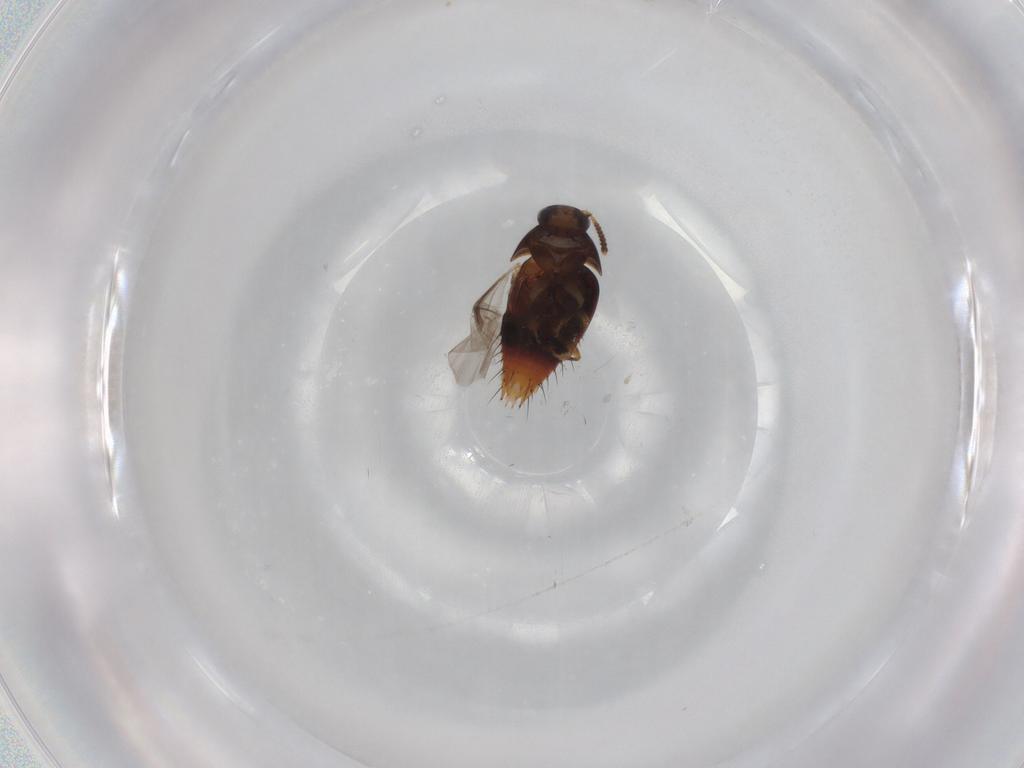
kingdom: Animalia
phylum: Arthropoda
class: Insecta
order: Coleoptera
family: Staphylinidae
